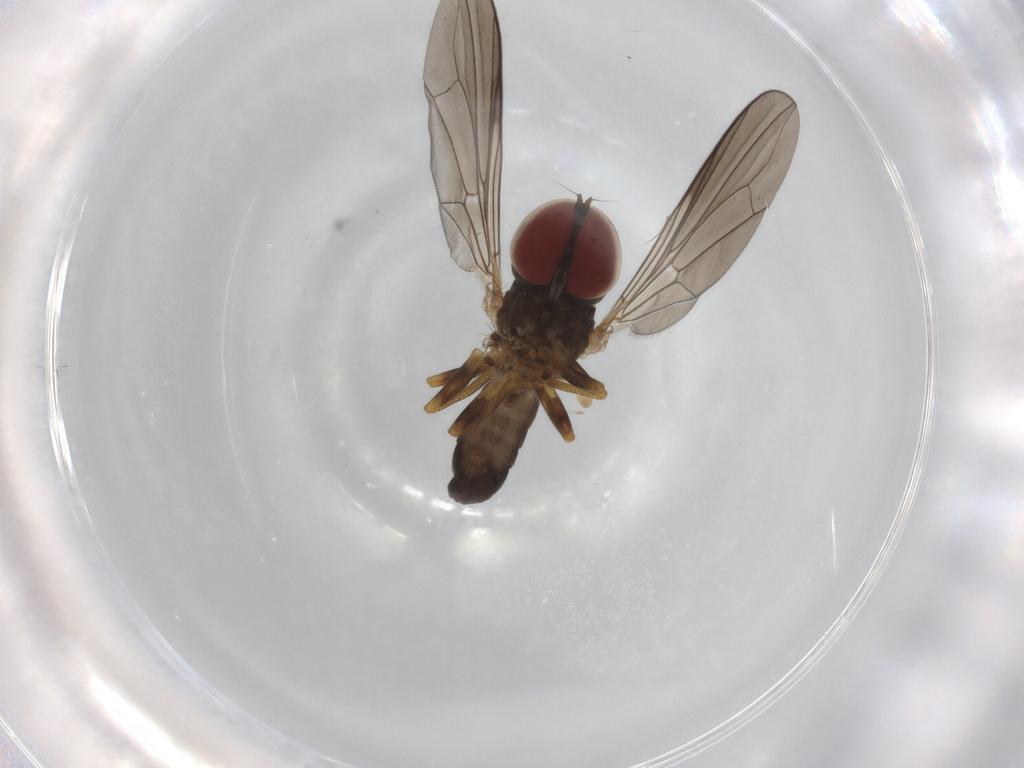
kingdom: Animalia
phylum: Arthropoda
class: Insecta
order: Diptera
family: Pipunculidae
